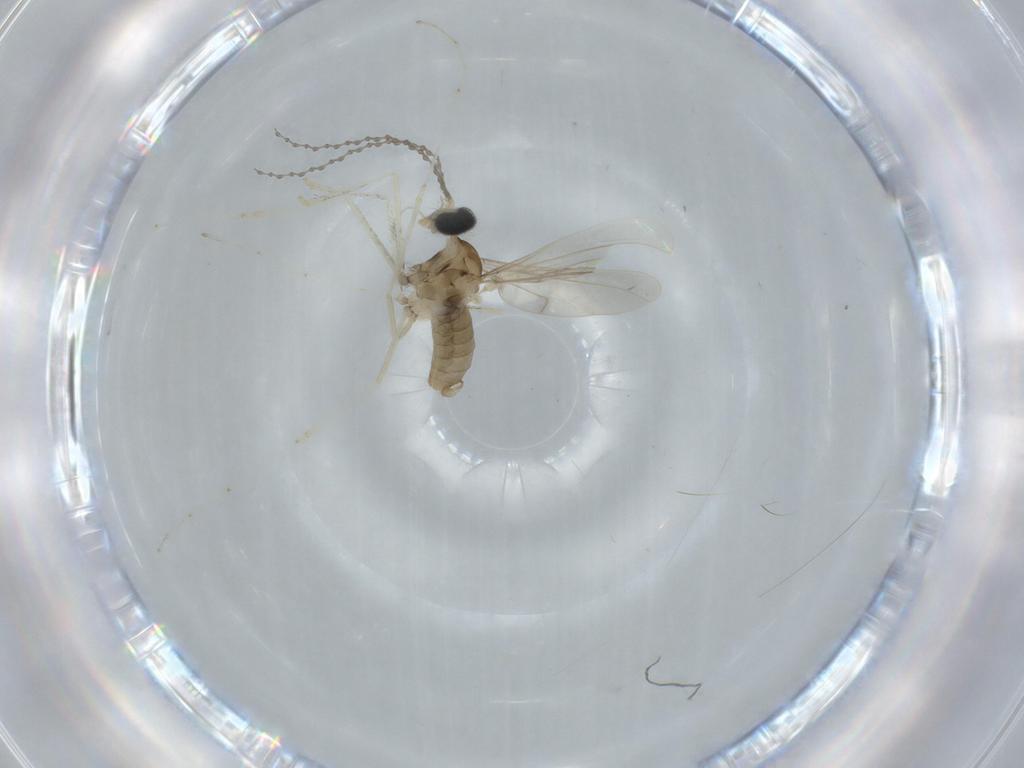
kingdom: Animalia
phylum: Arthropoda
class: Insecta
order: Diptera
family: Cecidomyiidae
